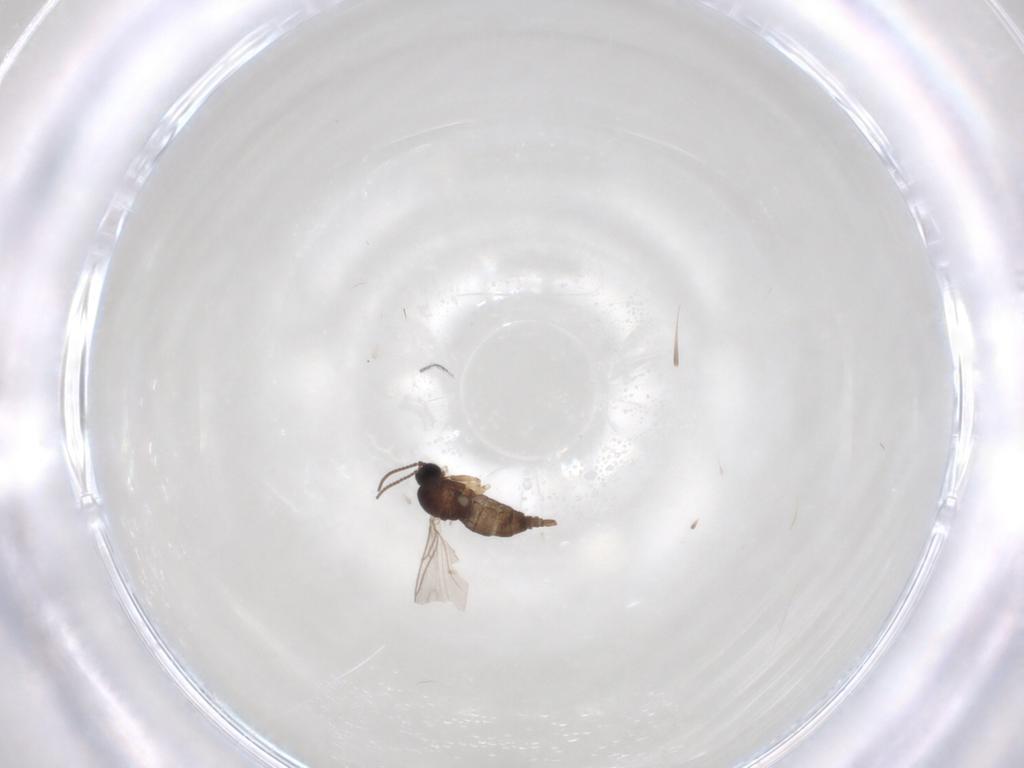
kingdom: Animalia
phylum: Arthropoda
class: Insecta
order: Diptera
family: Sciaridae
